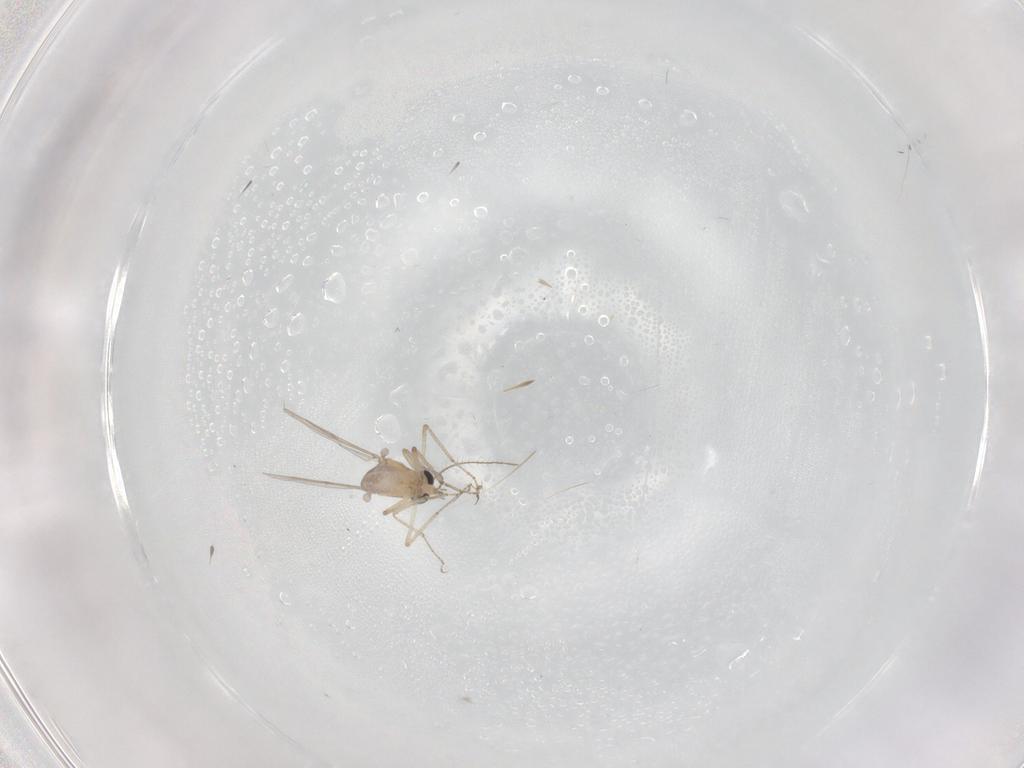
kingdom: Animalia
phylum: Arthropoda
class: Insecta
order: Diptera
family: Ceratopogonidae
